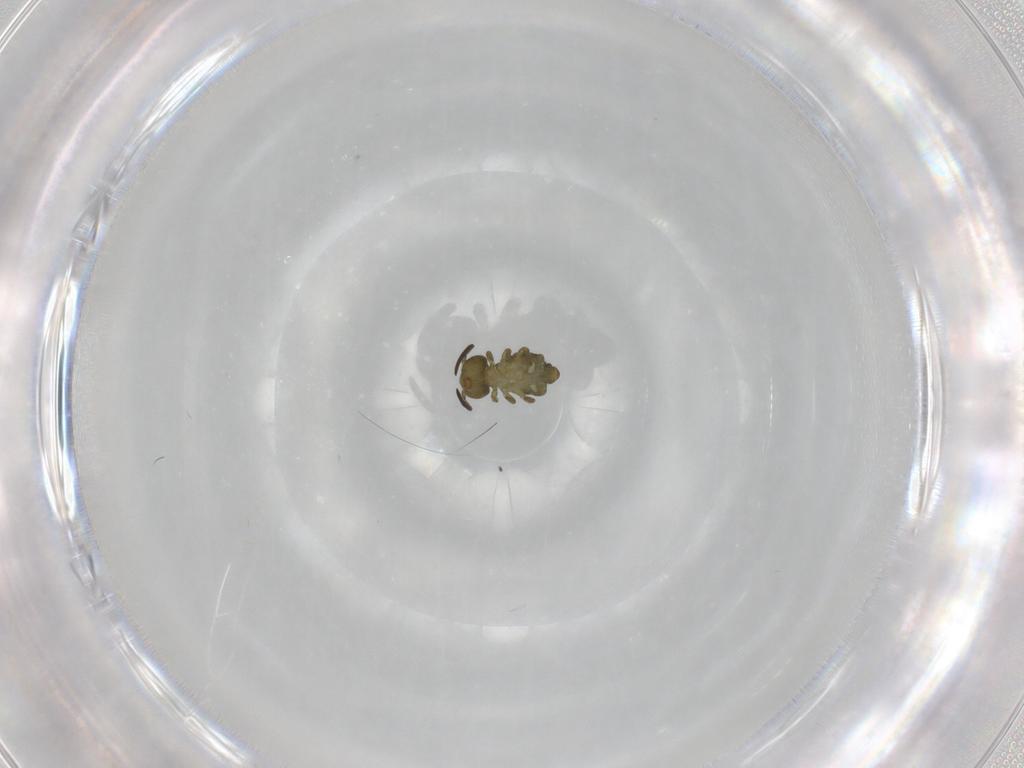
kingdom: Animalia
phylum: Arthropoda
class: Collembola
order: Symphypleona
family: Sminthuridae
